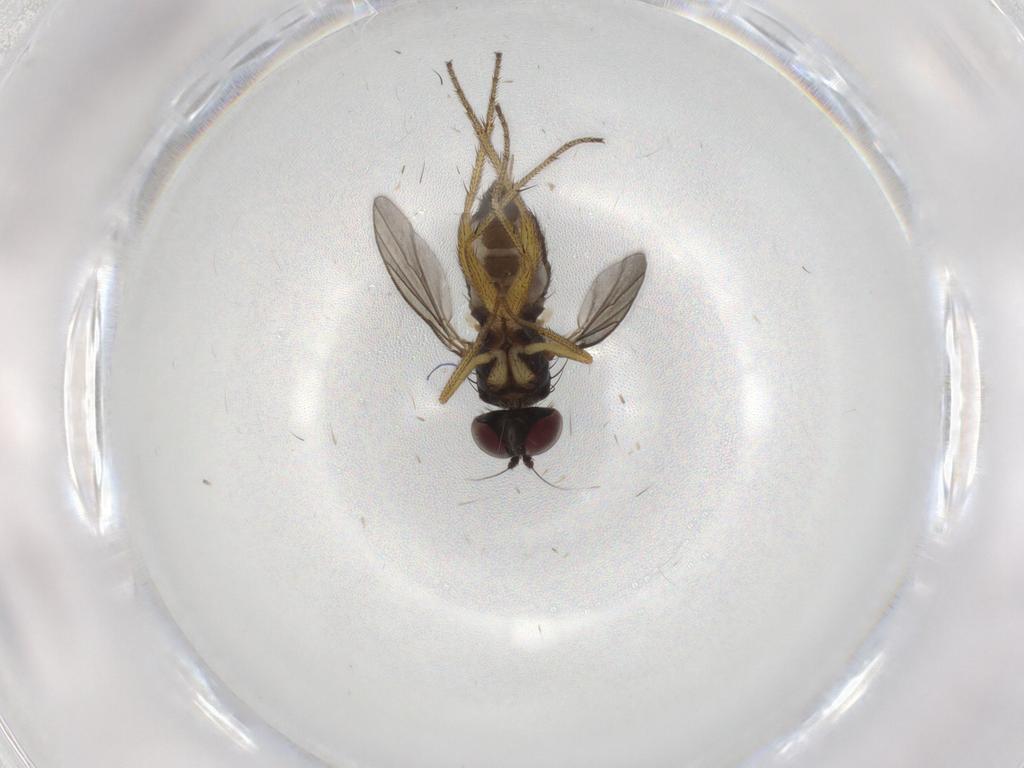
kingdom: Animalia
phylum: Arthropoda
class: Insecta
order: Diptera
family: Dolichopodidae
